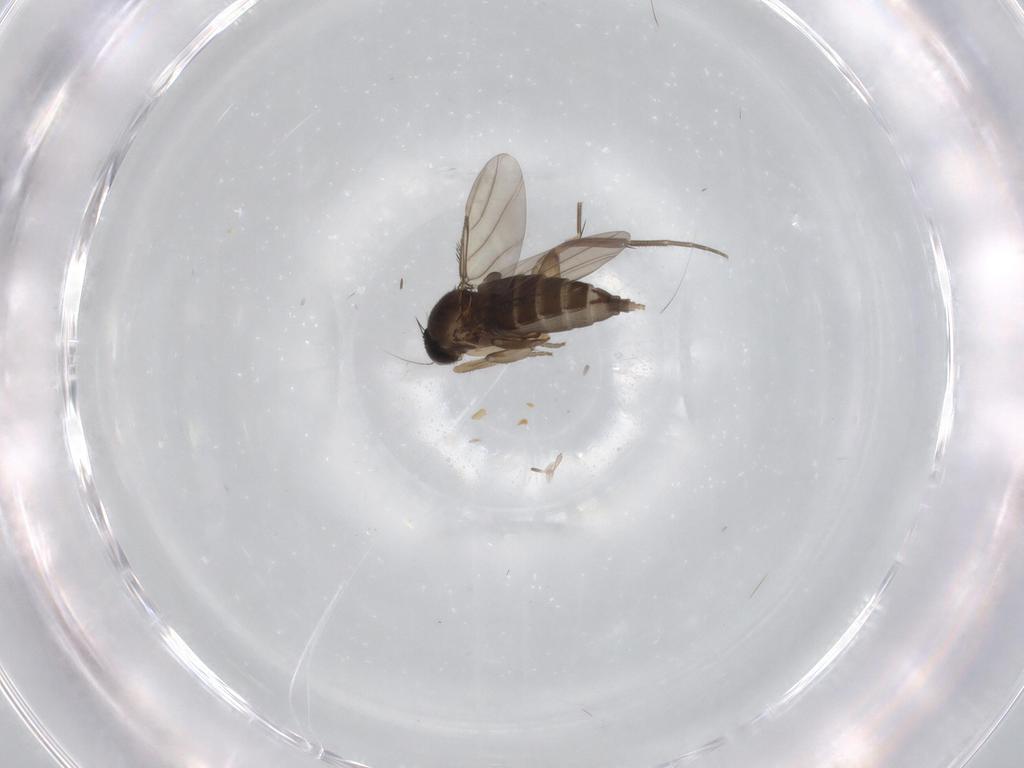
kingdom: Animalia
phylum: Arthropoda
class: Insecta
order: Diptera
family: Phoridae
